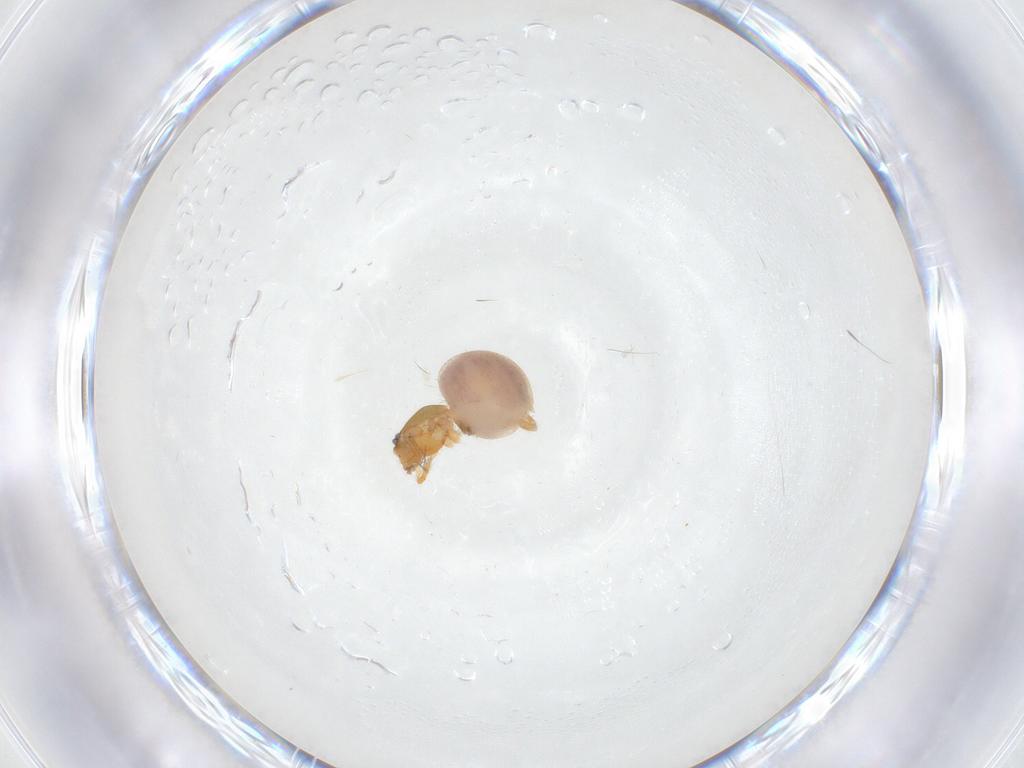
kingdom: Animalia
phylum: Arthropoda
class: Arachnida
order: Araneae
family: Oonopidae
